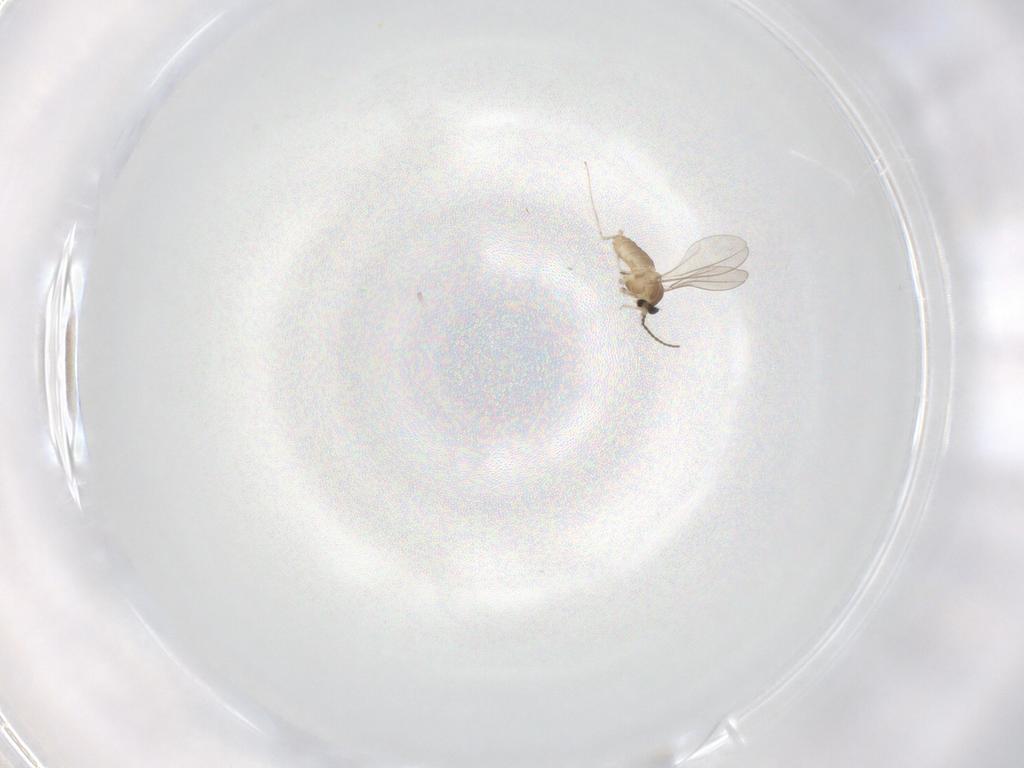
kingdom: Animalia
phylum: Arthropoda
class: Insecta
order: Diptera
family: Cecidomyiidae
